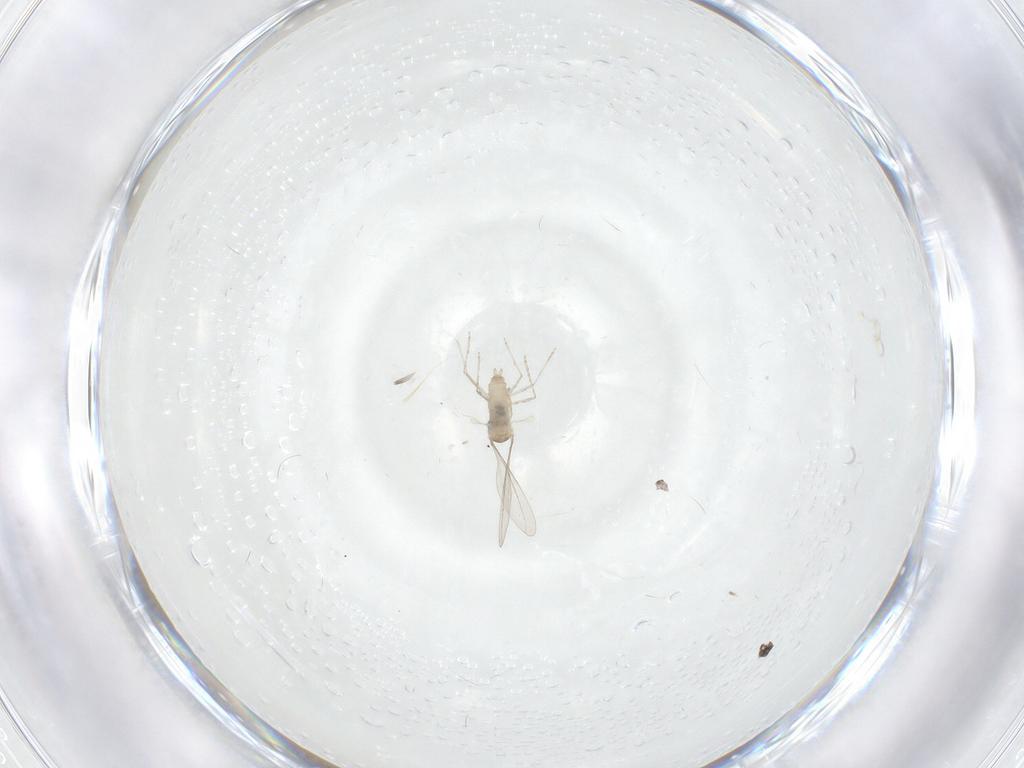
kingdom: Animalia
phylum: Arthropoda
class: Insecta
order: Diptera
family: Cecidomyiidae
